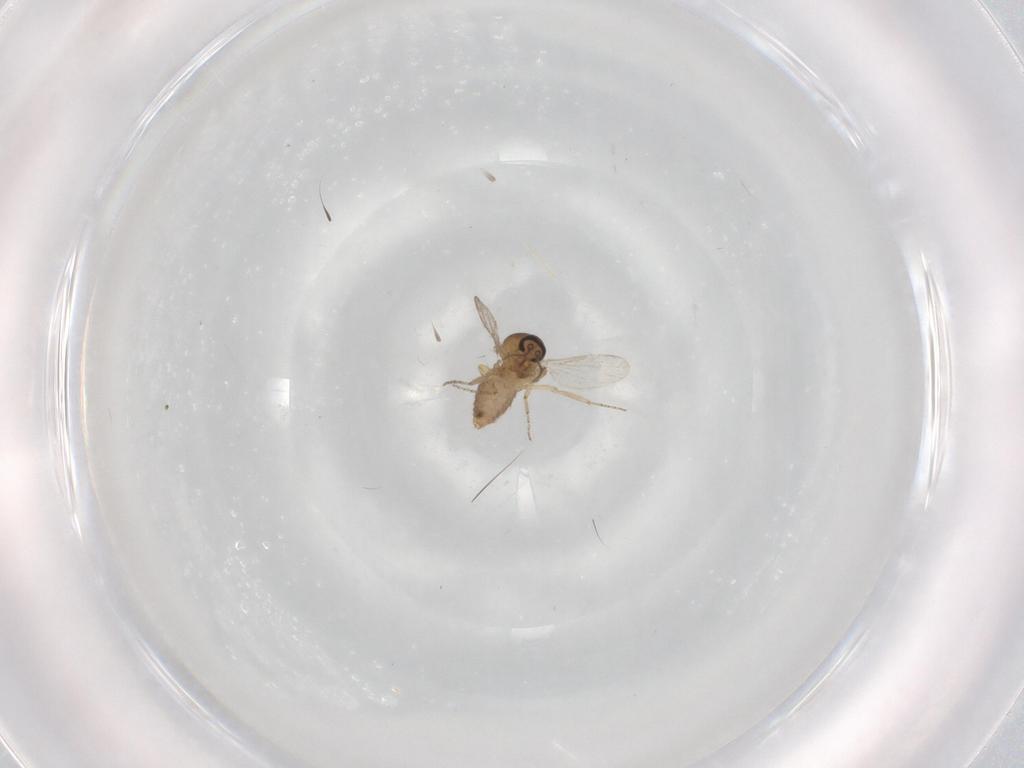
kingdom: Animalia
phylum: Arthropoda
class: Insecta
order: Diptera
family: Ceratopogonidae
